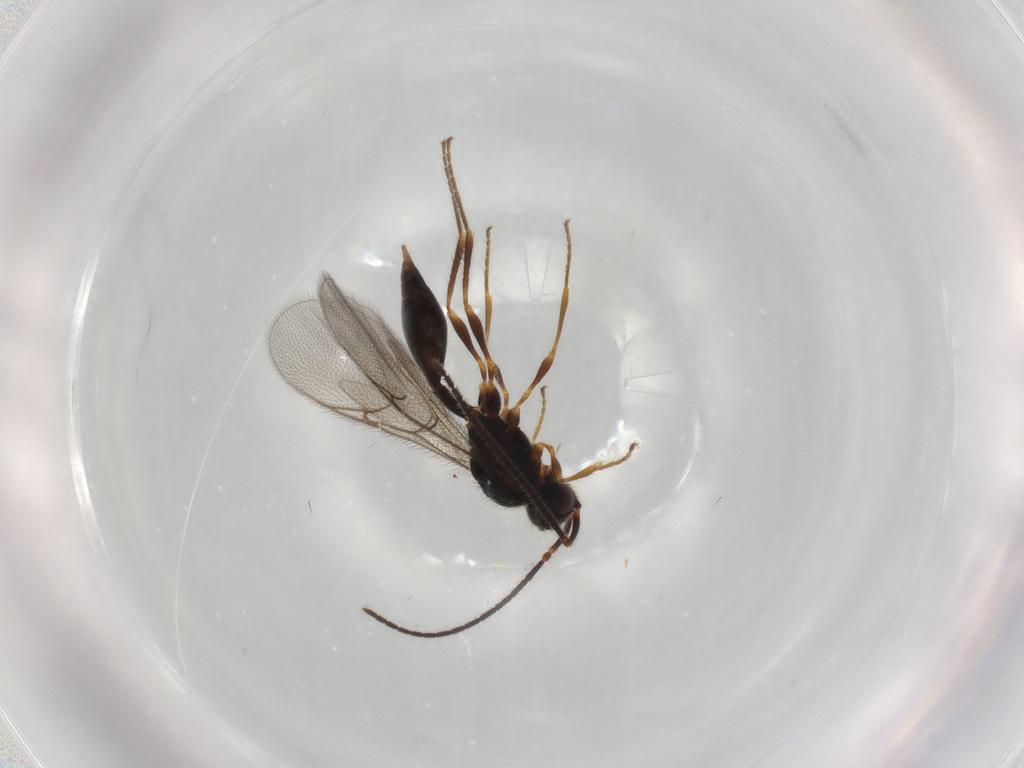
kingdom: Animalia
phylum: Arthropoda
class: Insecta
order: Hymenoptera
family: Diapriidae
